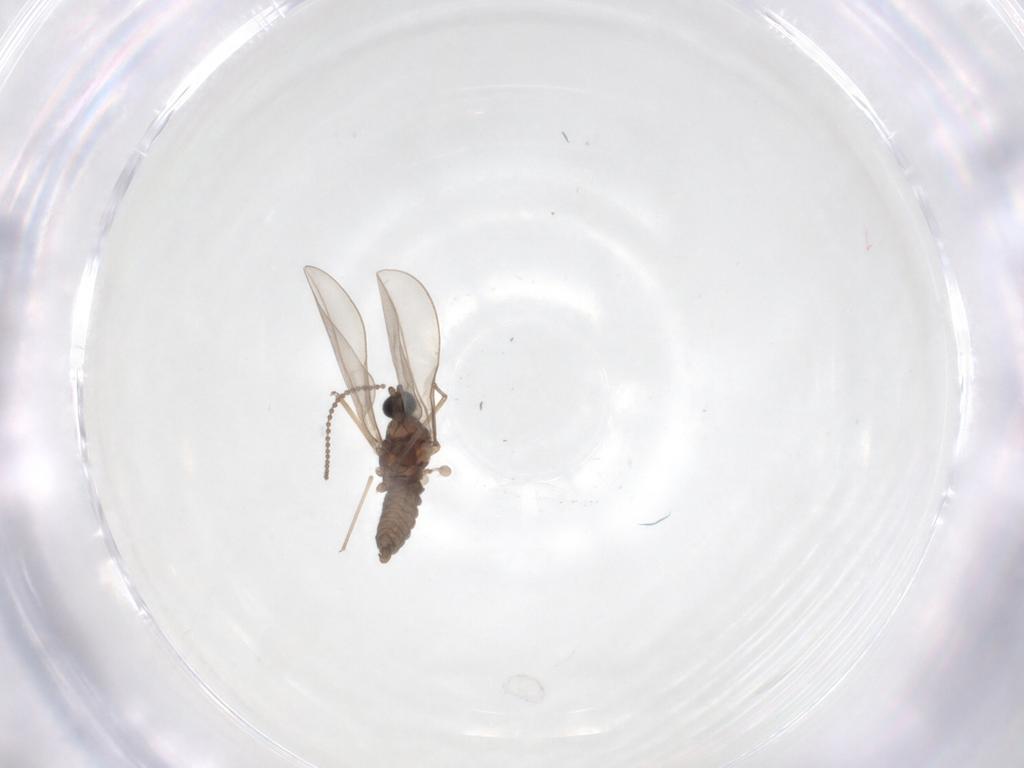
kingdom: Animalia
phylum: Arthropoda
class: Insecta
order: Diptera
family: Cecidomyiidae
